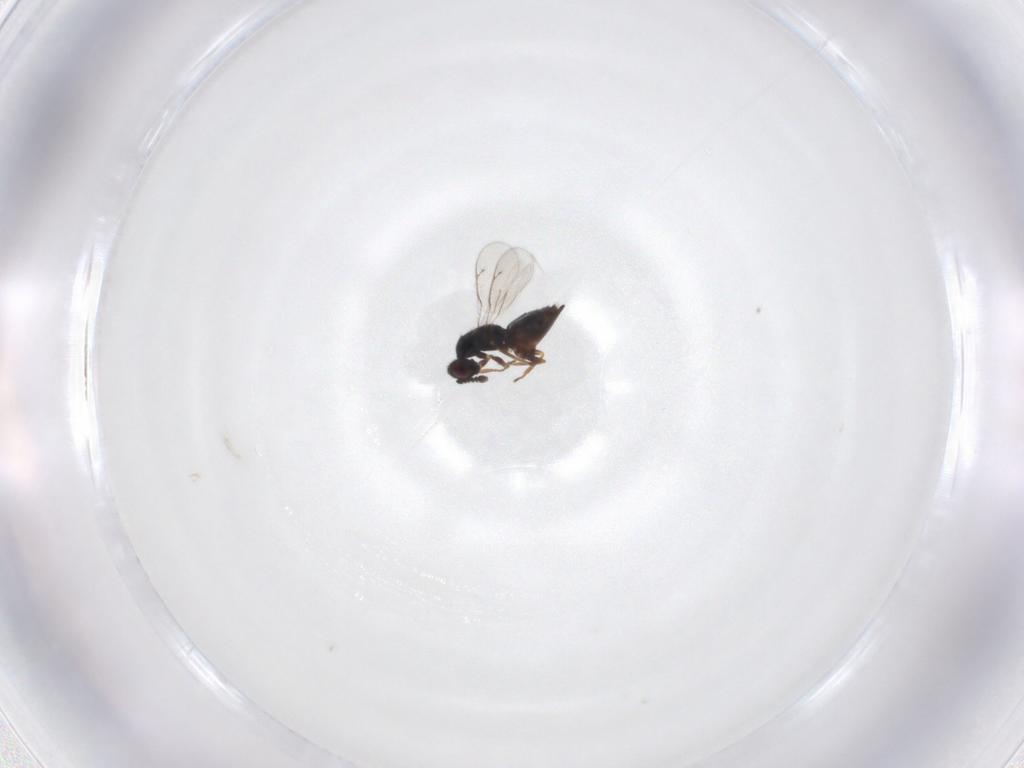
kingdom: Animalia
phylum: Arthropoda
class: Insecta
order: Hymenoptera
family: Eulophidae
